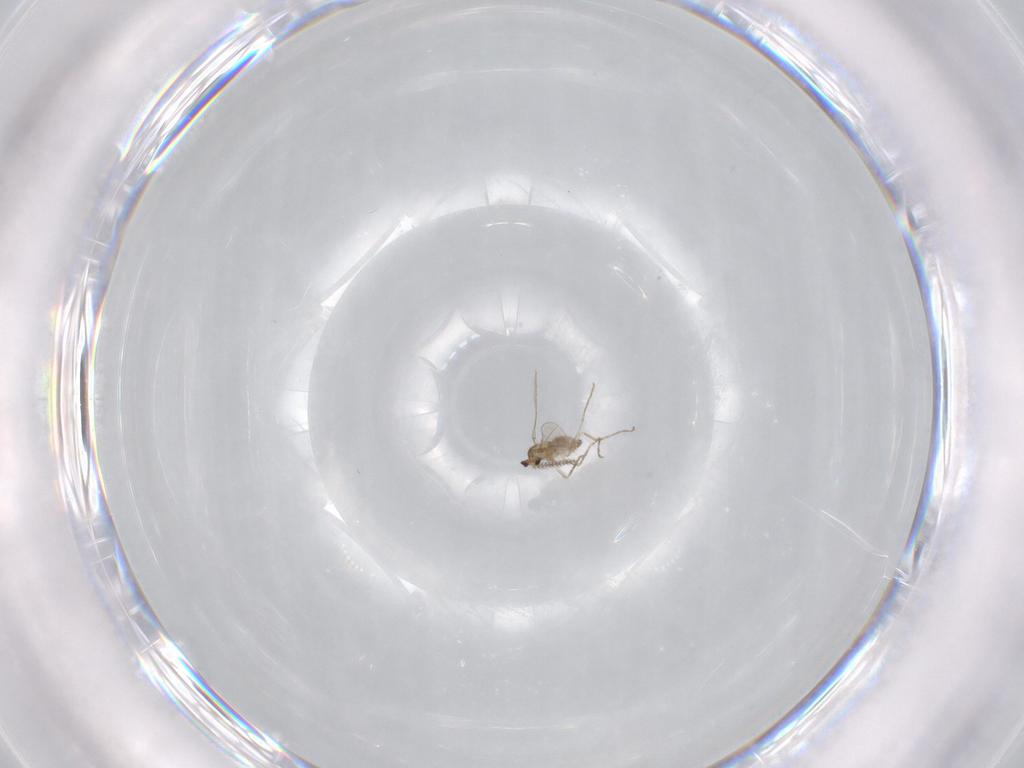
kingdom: Animalia
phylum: Arthropoda
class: Insecta
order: Diptera
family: Cecidomyiidae
